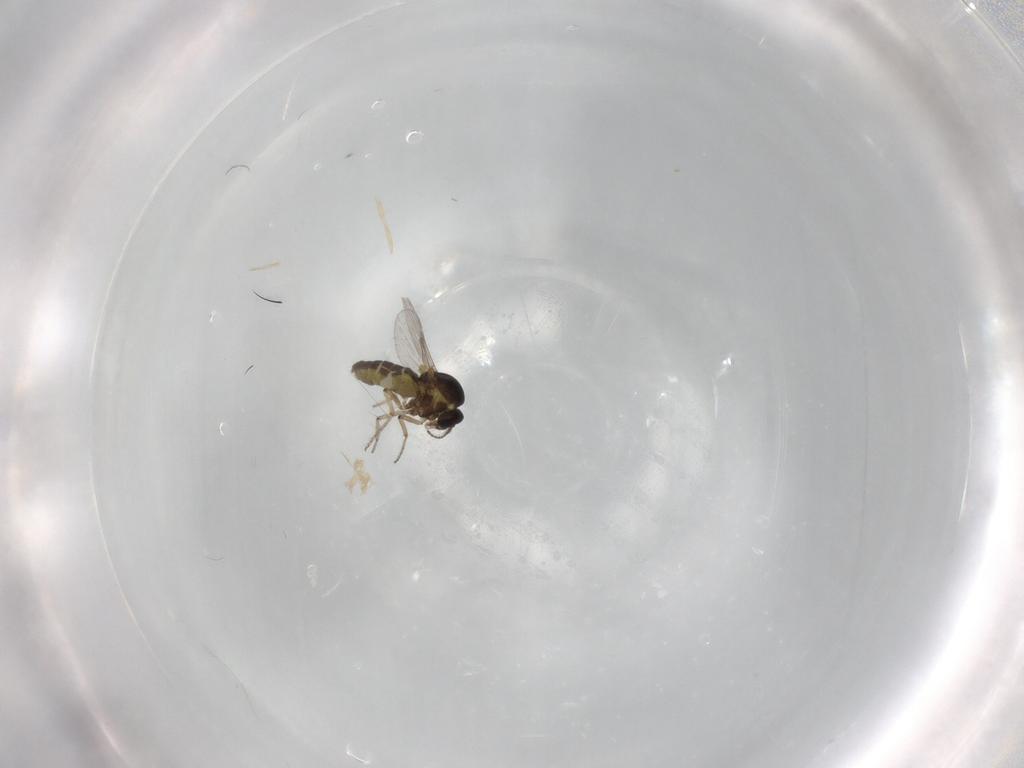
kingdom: Animalia
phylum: Arthropoda
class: Insecta
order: Diptera
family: Ceratopogonidae
